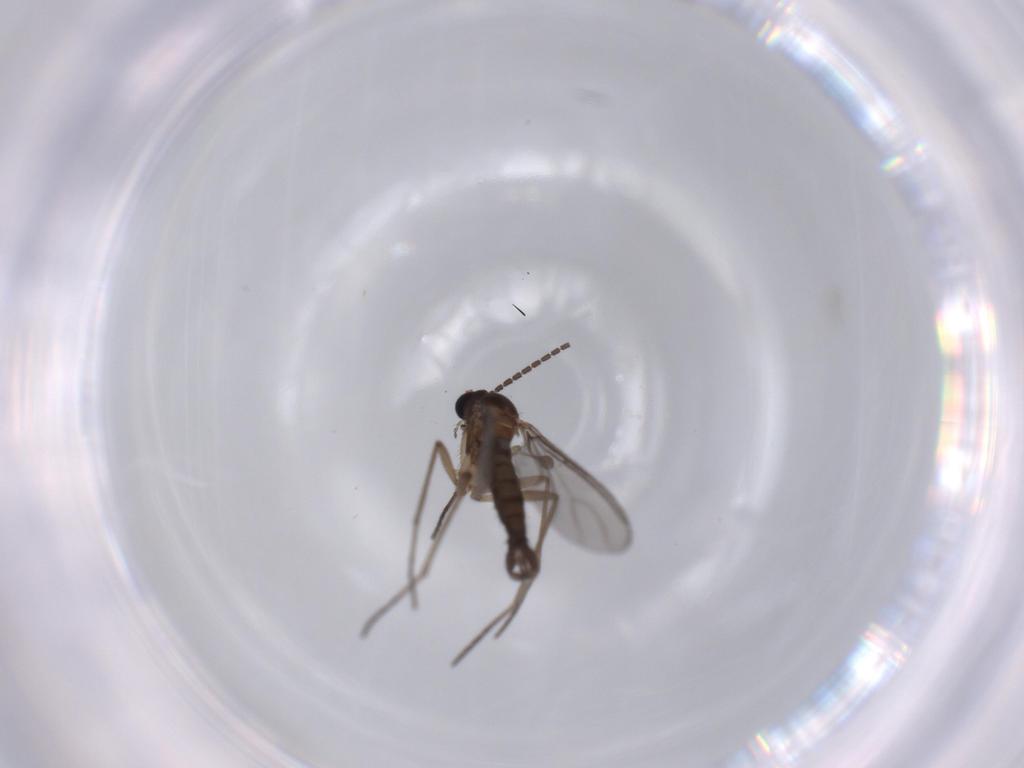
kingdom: Animalia
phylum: Arthropoda
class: Insecta
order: Diptera
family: Sciaridae
